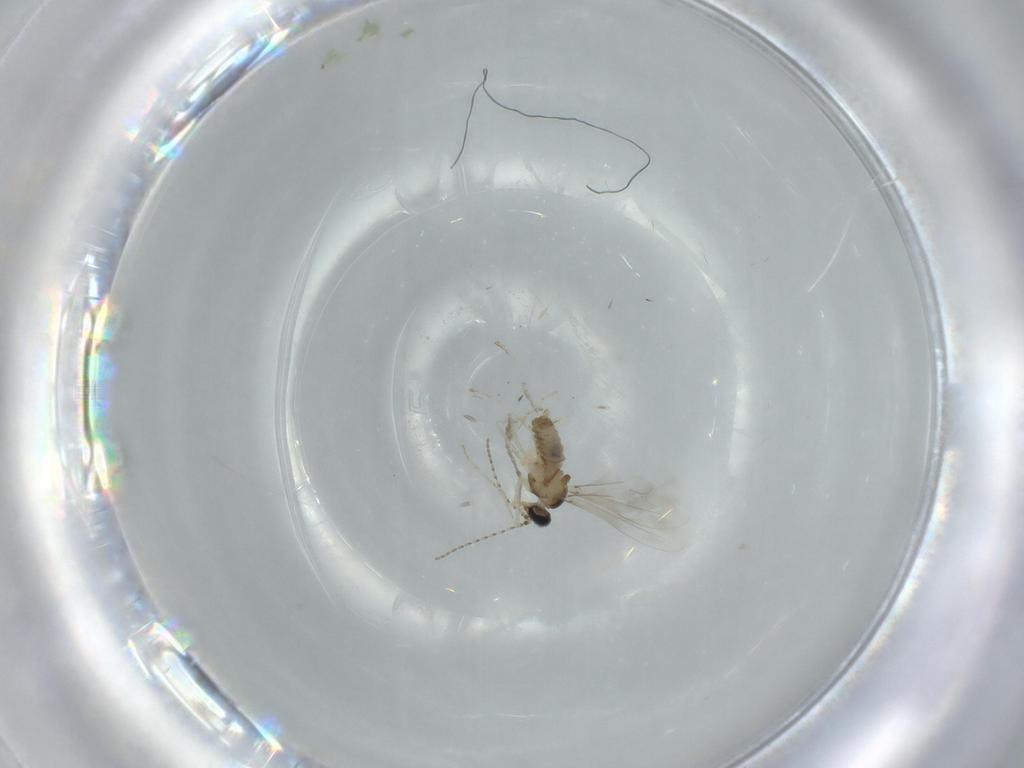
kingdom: Animalia
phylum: Arthropoda
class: Insecta
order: Diptera
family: Cecidomyiidae
